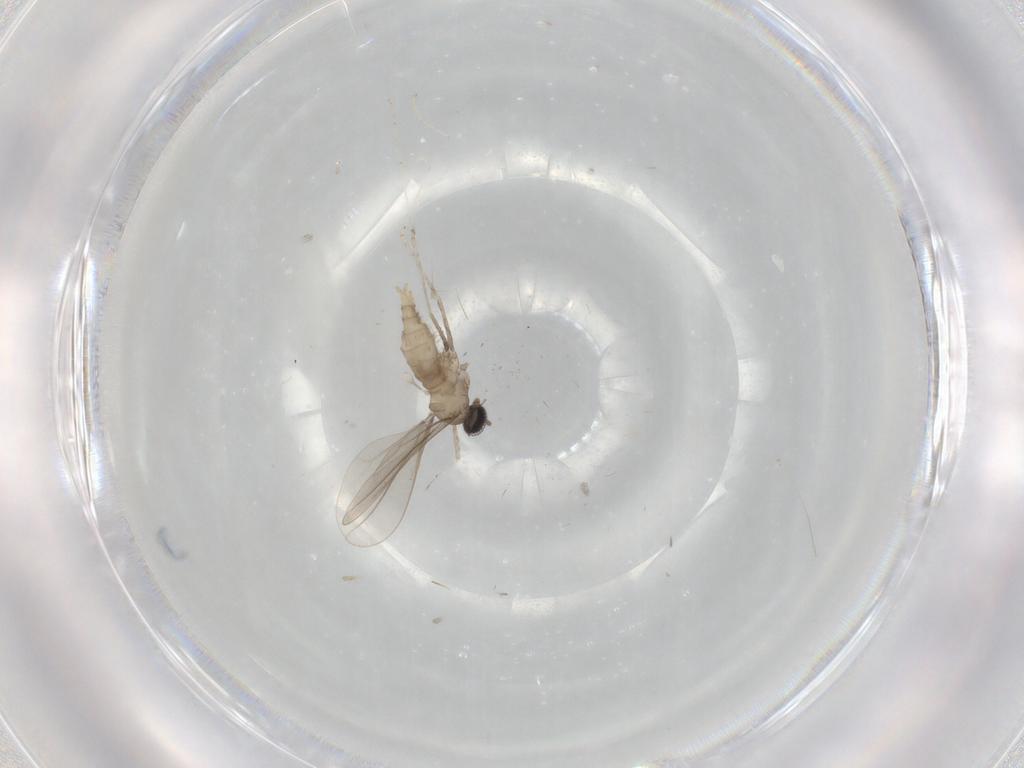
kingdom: Animalia
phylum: Arthropoda
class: Insecta
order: Diptera
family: Psychodidae
